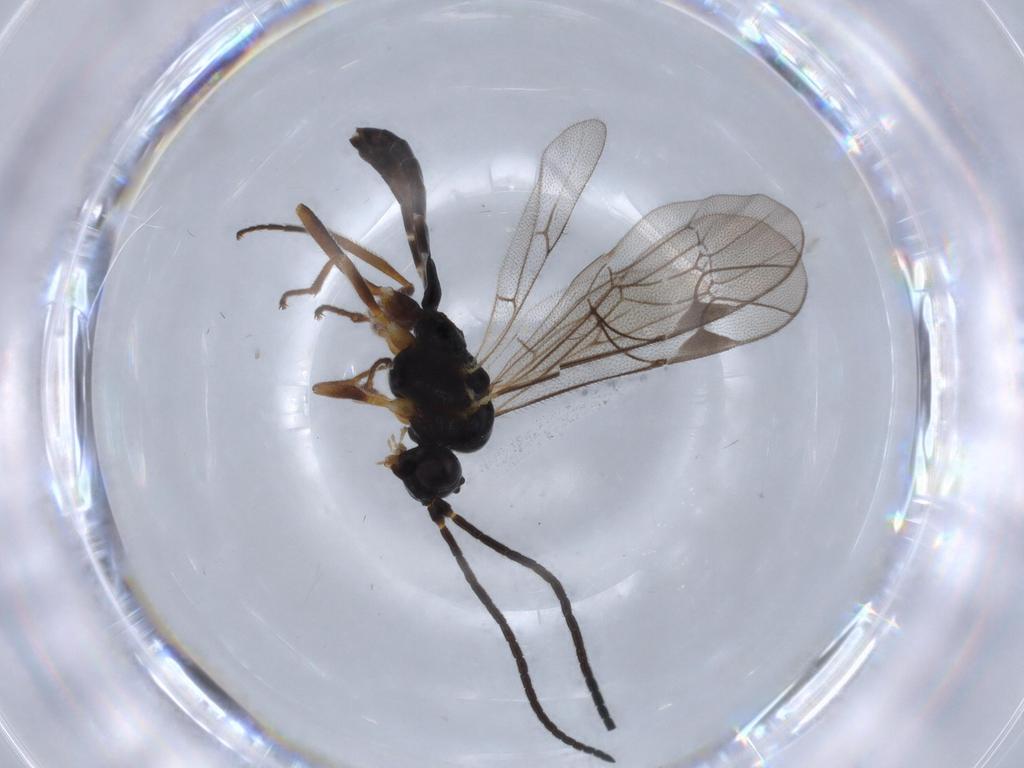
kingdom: Animalia
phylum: Arthropoda
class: Insecta
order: Hymenoptera
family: Ichneumonidae
